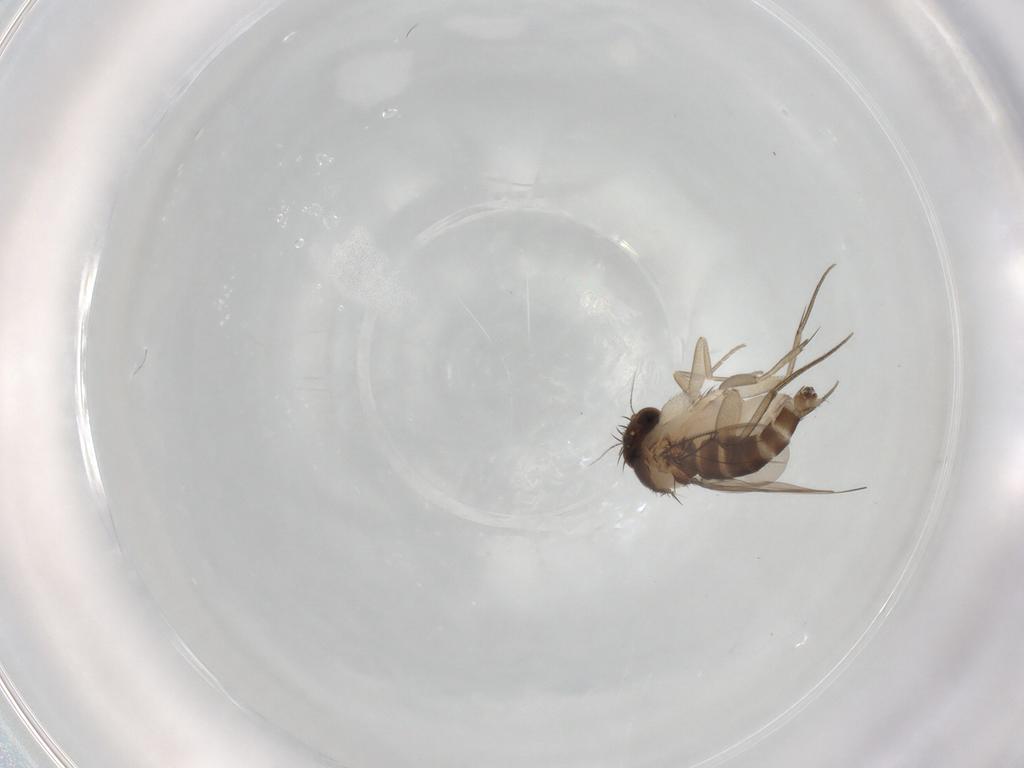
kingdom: Animalia
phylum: Arthropoda
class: Insecta
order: Diptera
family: Phoridae
